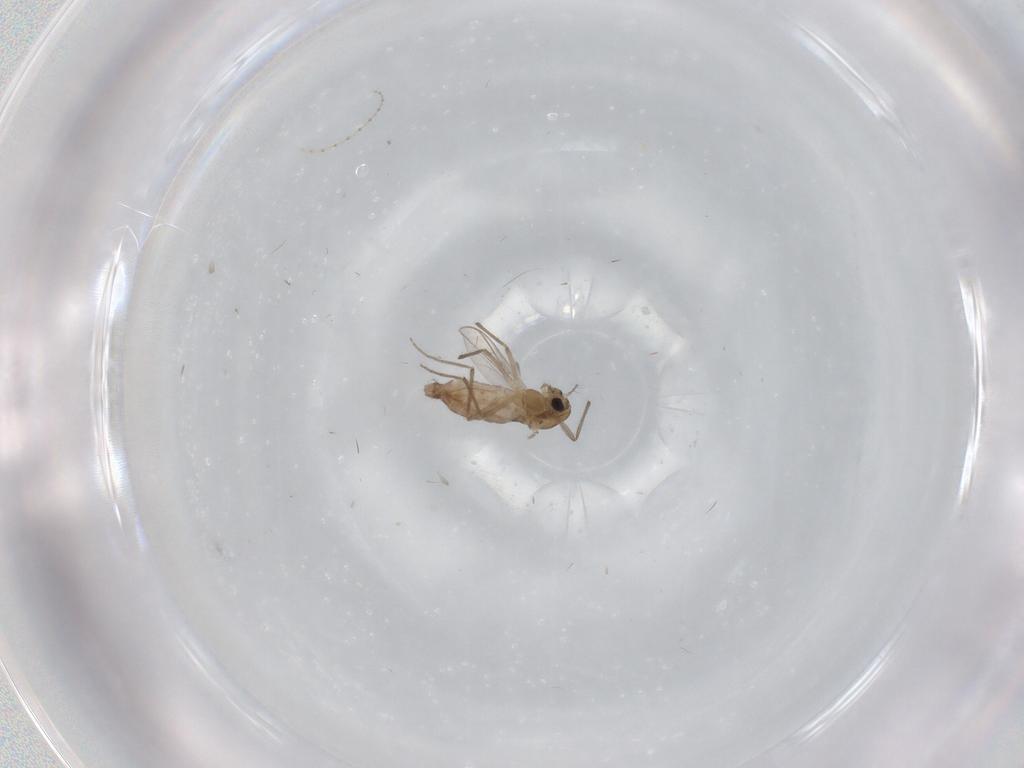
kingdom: Animalia
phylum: Arthropoda
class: Insecta
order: Diptera
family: Chironomidae
